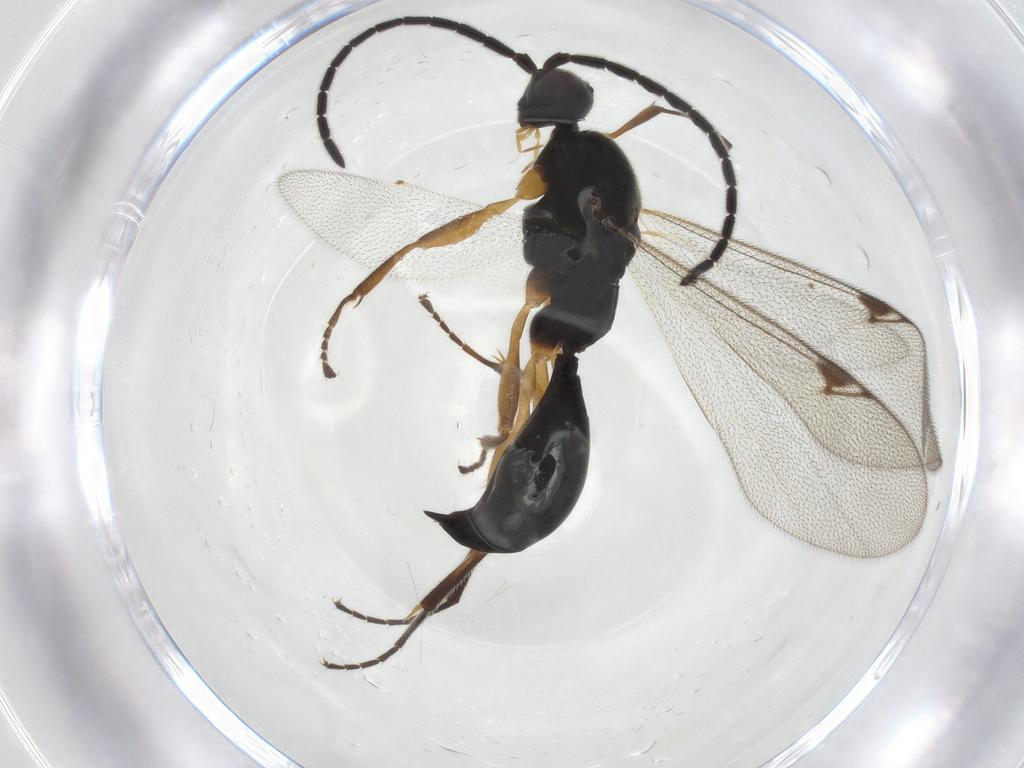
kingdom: Animalia
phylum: Arthropoda
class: Insecta
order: Hymenoptera
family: Proctotrupidae
